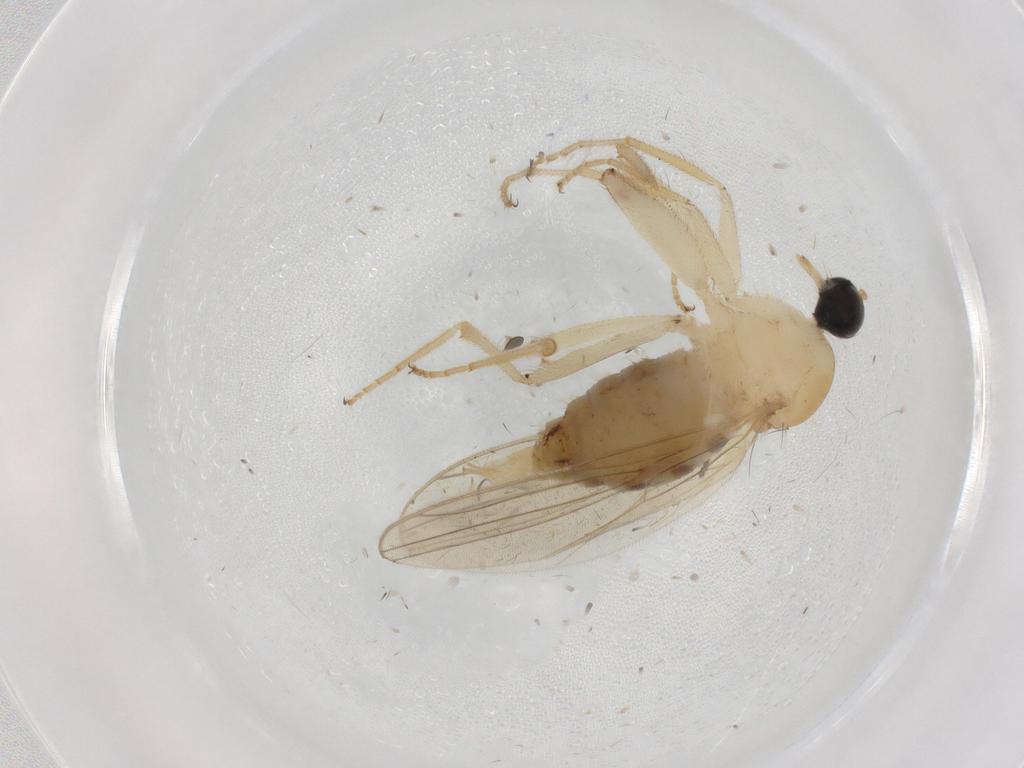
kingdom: Animalia
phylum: Arthropoda
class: Insecta
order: Diptera
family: Hybotidae
